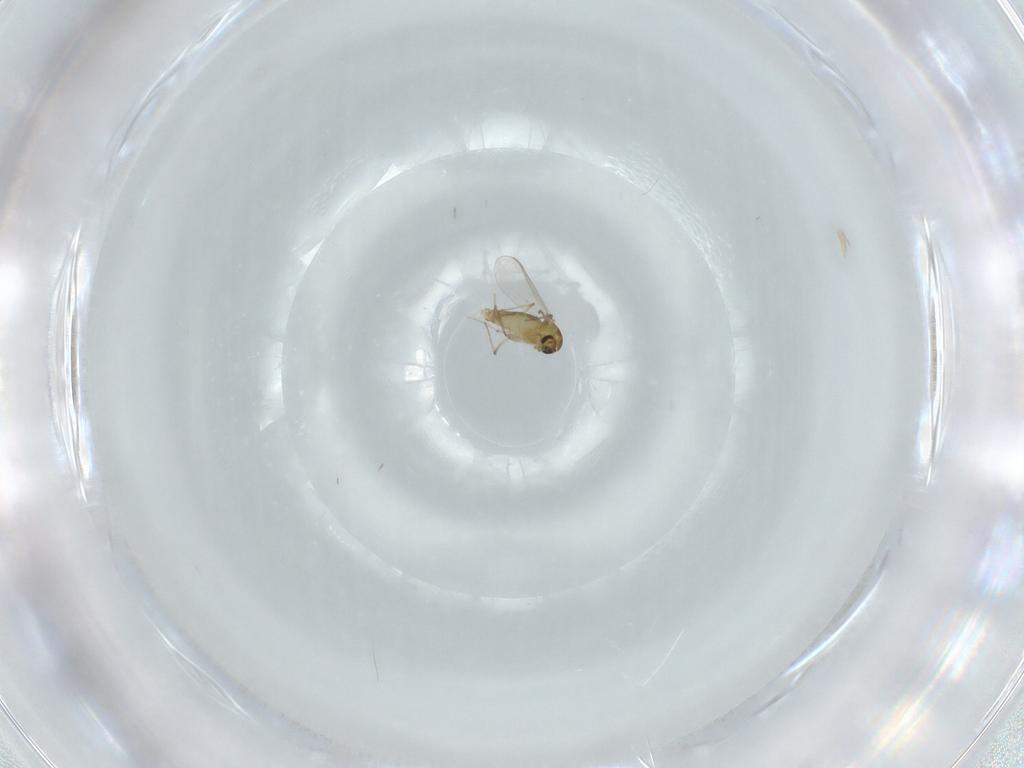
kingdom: Animalia
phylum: Arthropoda
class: Insecta
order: Diptera
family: Chironomidae
